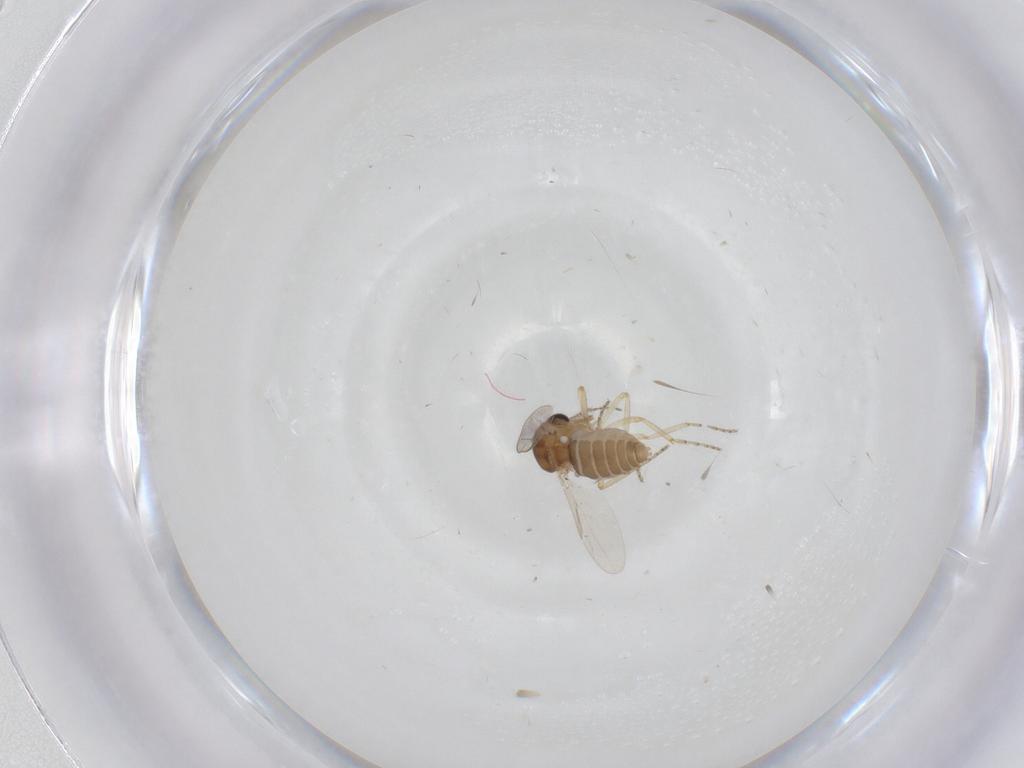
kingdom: Animalia
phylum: Arthropoda
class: Insecta
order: Diptera
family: Ceratopogonidae
